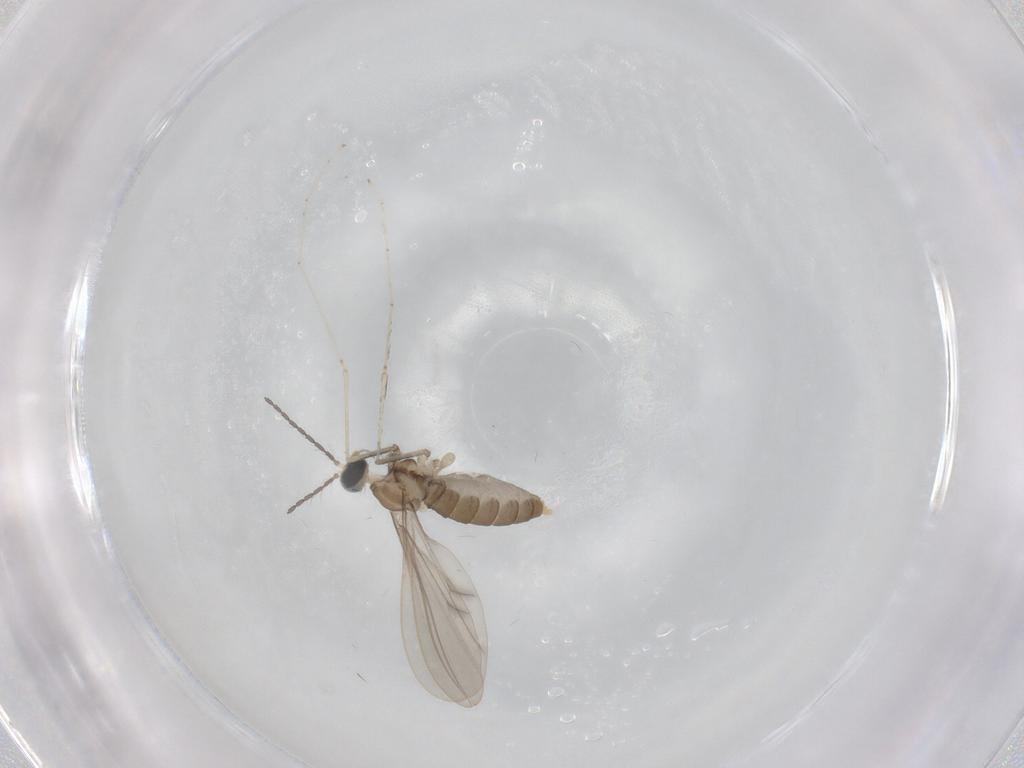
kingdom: Animalia
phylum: Arthropoda
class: Insecta
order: Diptera
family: Cecidomyiidae
